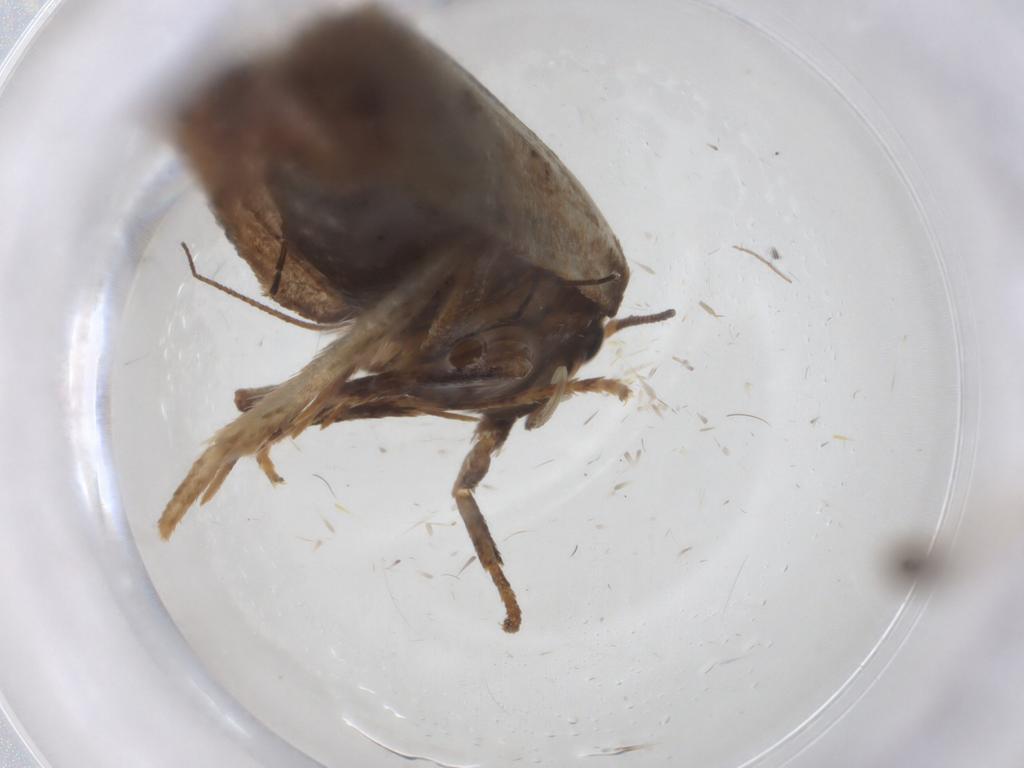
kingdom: Animalia
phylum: Arthropoda
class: Insecta
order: Lepidoptera
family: Oecophoridae
